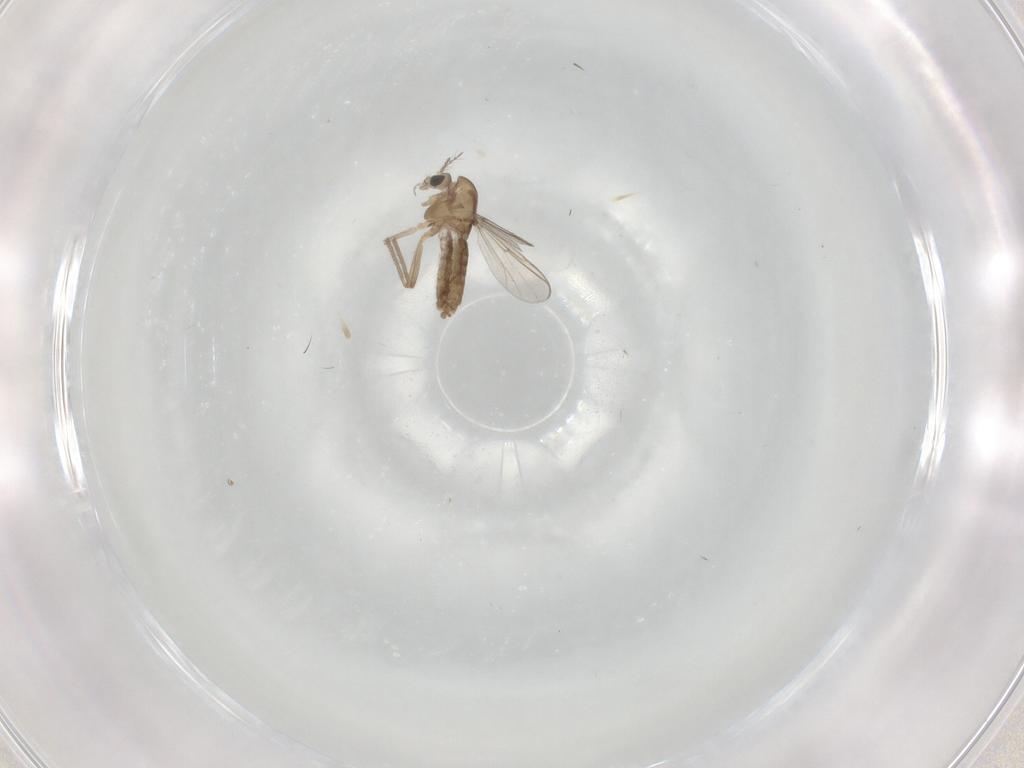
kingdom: Animalia
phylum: Arthropoda
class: Insecta
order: Diptera
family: Chironomidae
